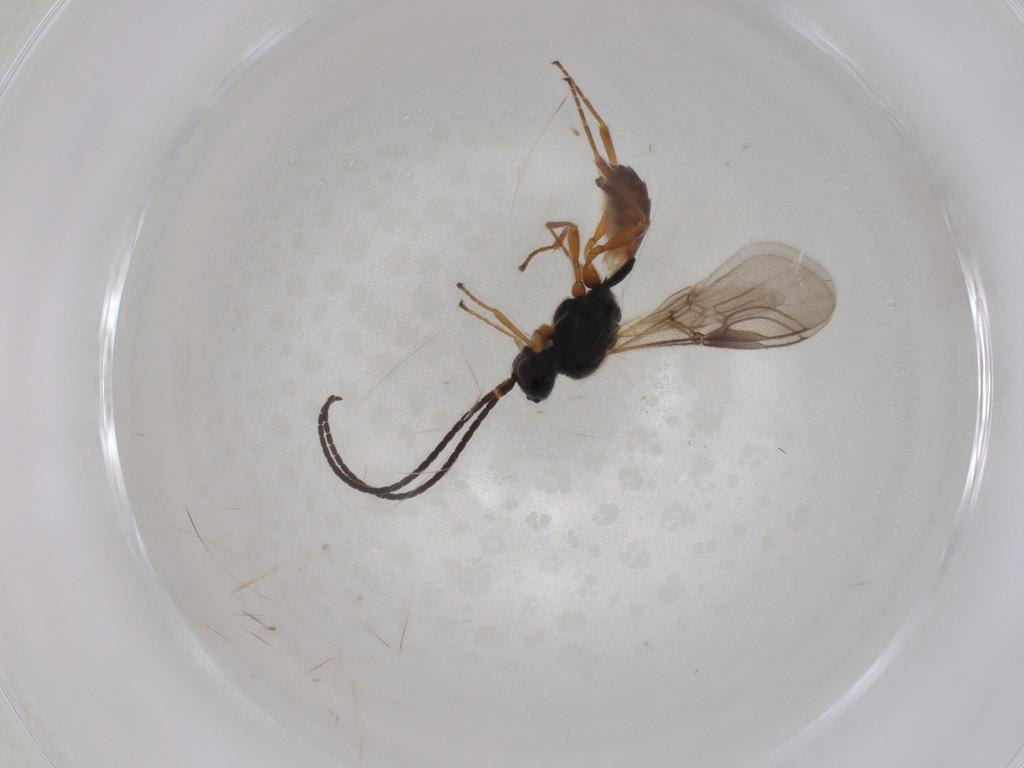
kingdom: Animalia
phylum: Arthropoda
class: Insecta
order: Hymenoptera
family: Braconidae
